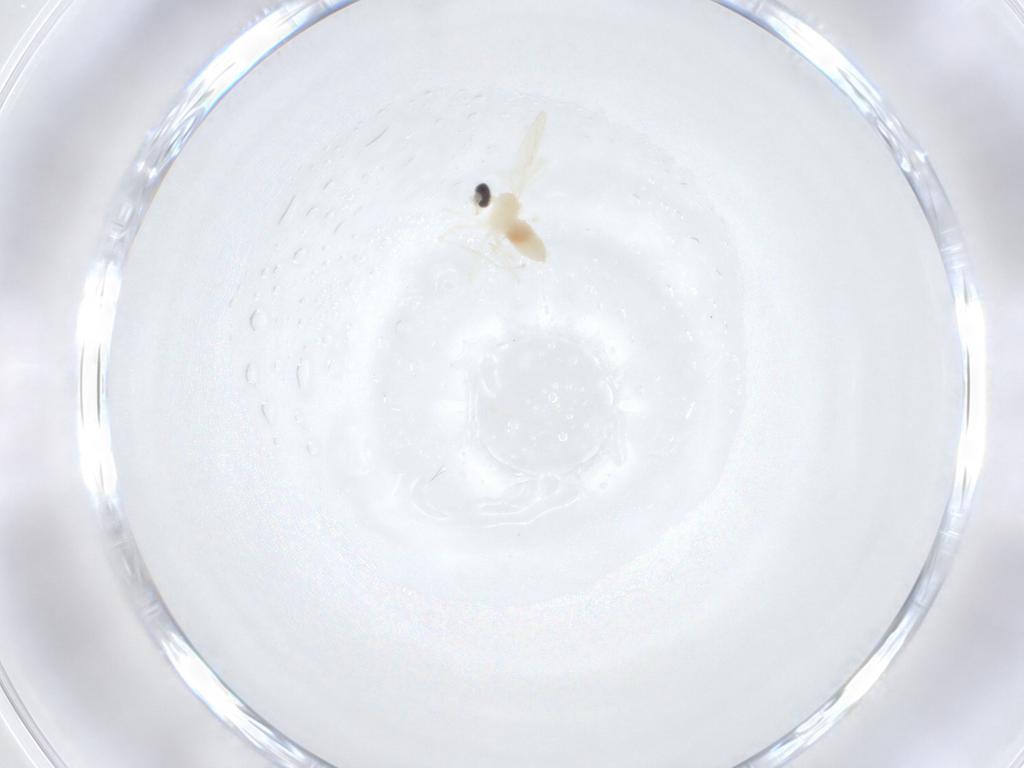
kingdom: Animalia
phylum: Arthropoda
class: Insecta
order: Diptera
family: Cecidomyiidae
